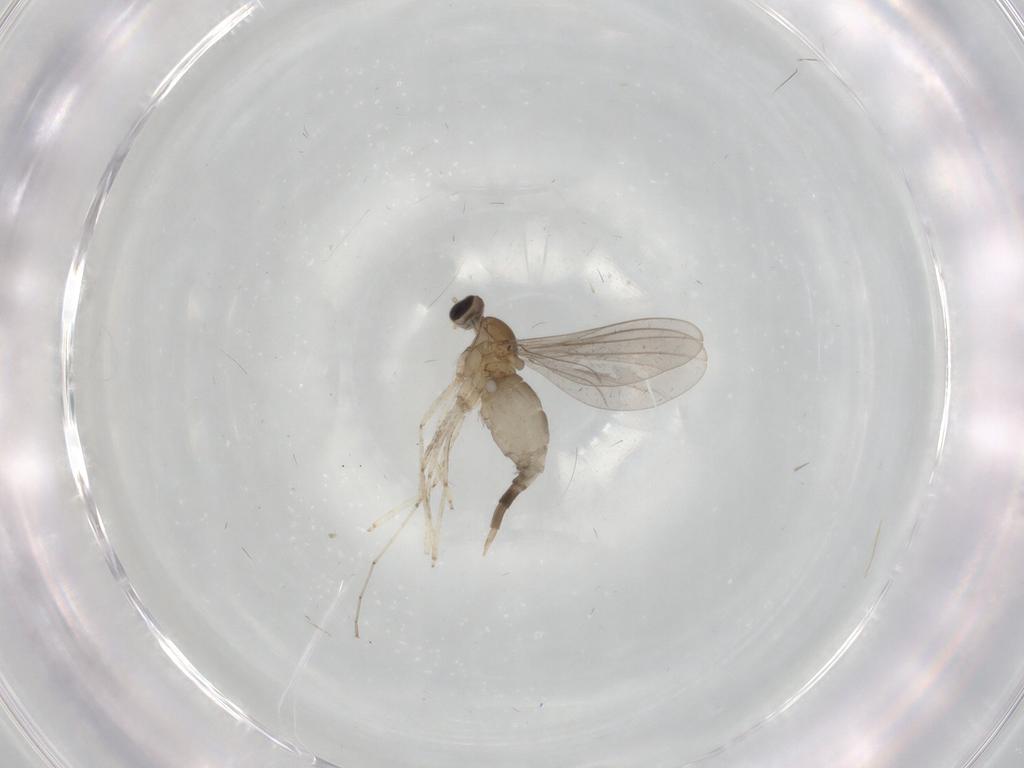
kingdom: Animalia
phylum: Arthropoda
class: Insecta
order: Diptera
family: Cecidomyiidae
